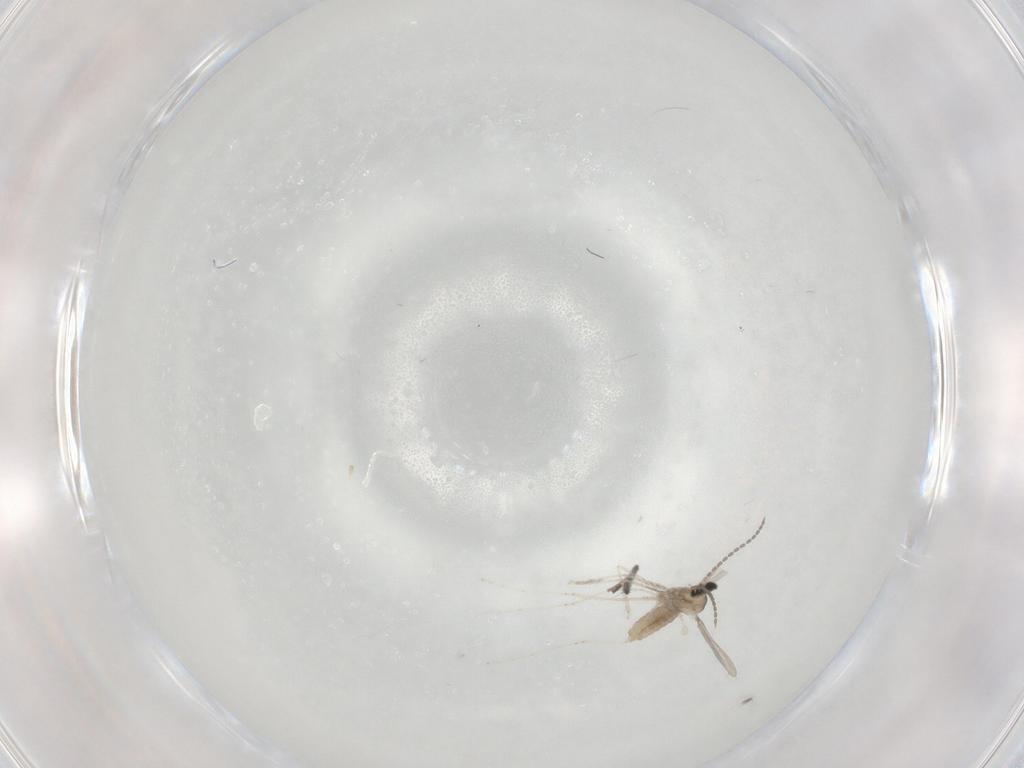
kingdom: Animalia
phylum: Arthropoda
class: Insecta
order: Diptera
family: Ditomyiidae
